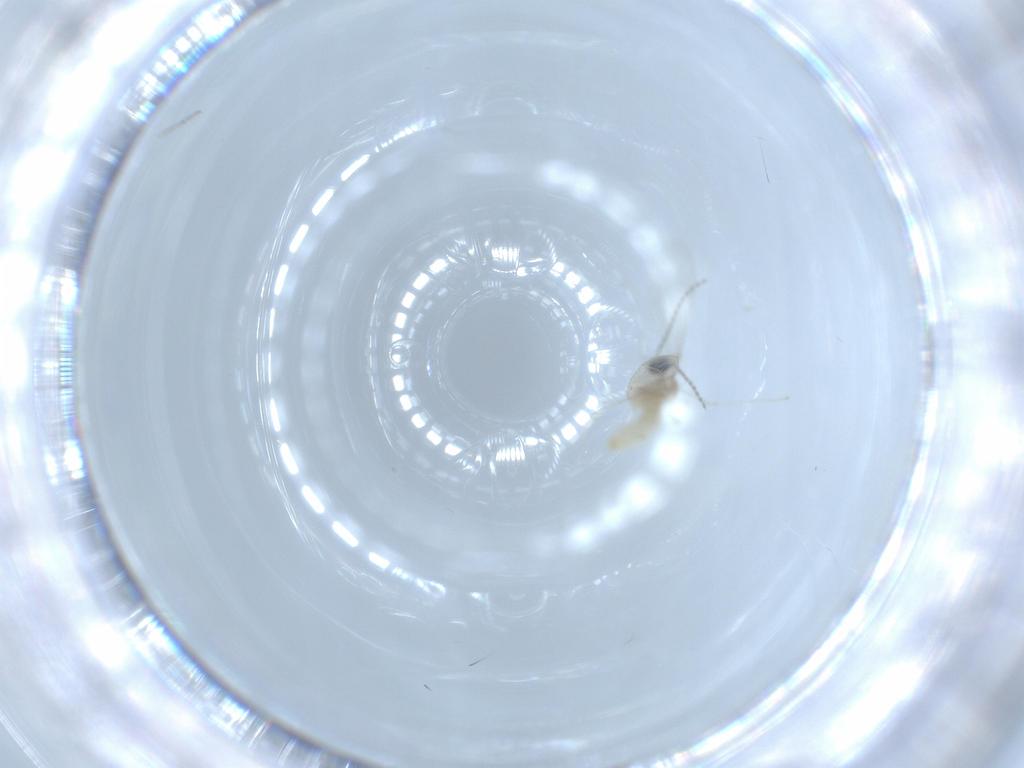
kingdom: Animalia
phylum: Arthropoda
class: Insecta
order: Diptera
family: Cecidomyiidae
